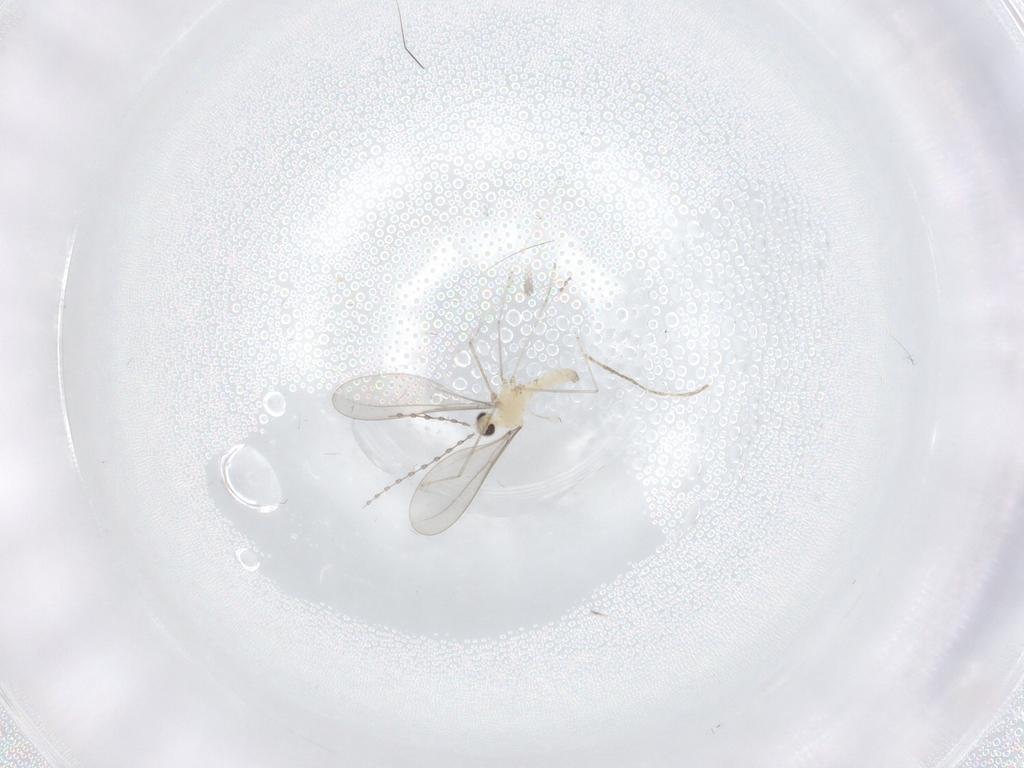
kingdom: Animalia
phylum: Arthropoda
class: Insecta
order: Diptera
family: Cecidomyiidae
